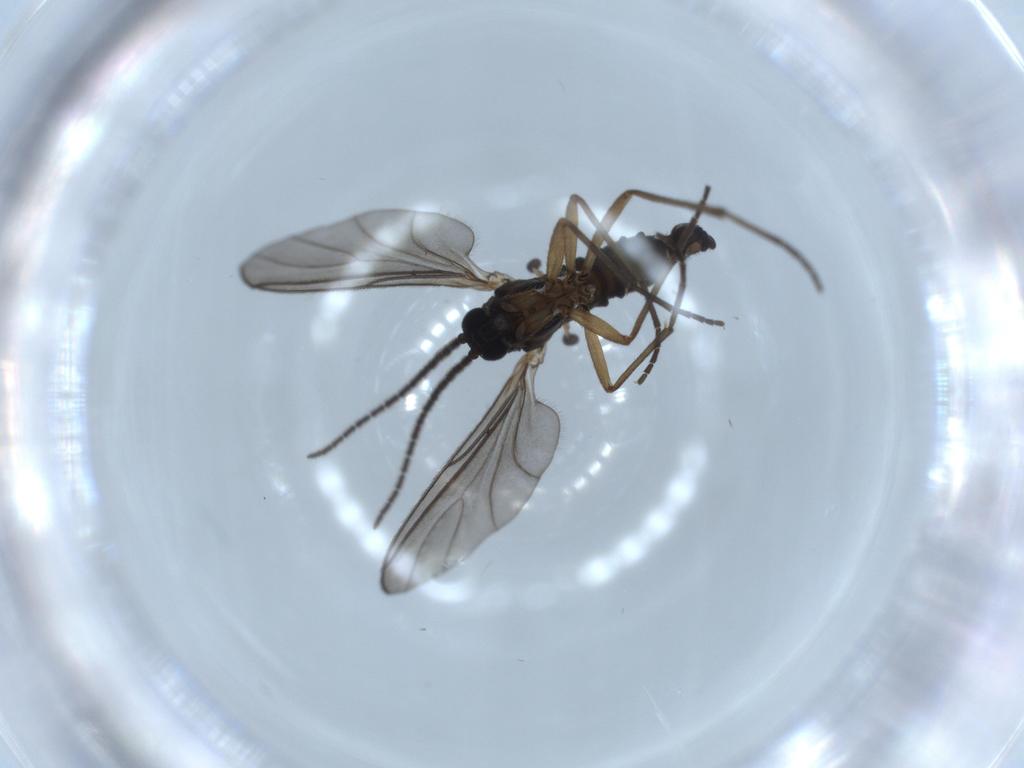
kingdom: Animalia
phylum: Arthropoda
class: Insecta
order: Diptera
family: Sciaridae
